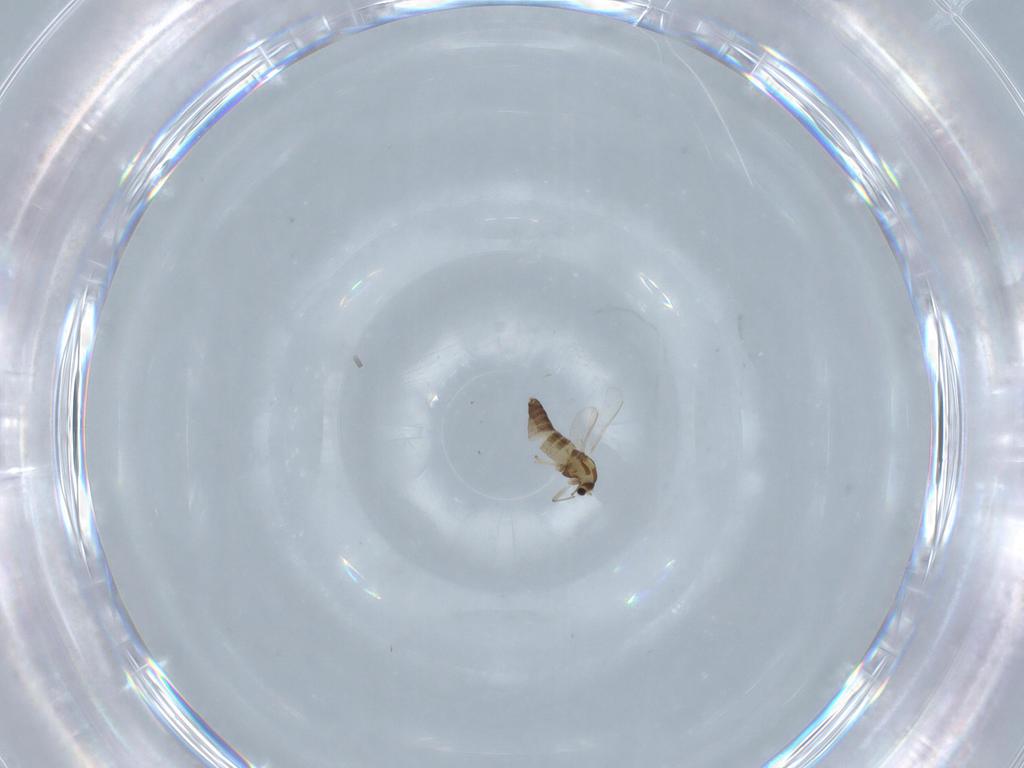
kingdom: Animalia
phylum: Arthropoda
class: Insecta
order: Diptera
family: Chironomidae
